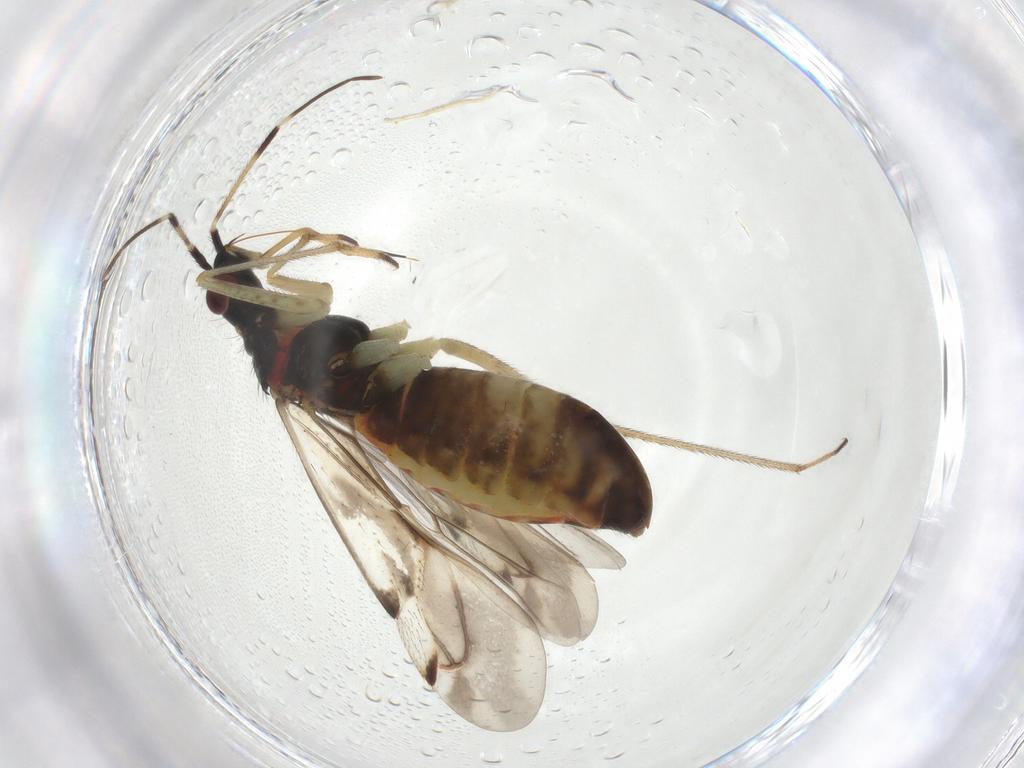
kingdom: Animalia
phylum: Arthropoda
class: Insecta
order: Hemiptera
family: Miridae
